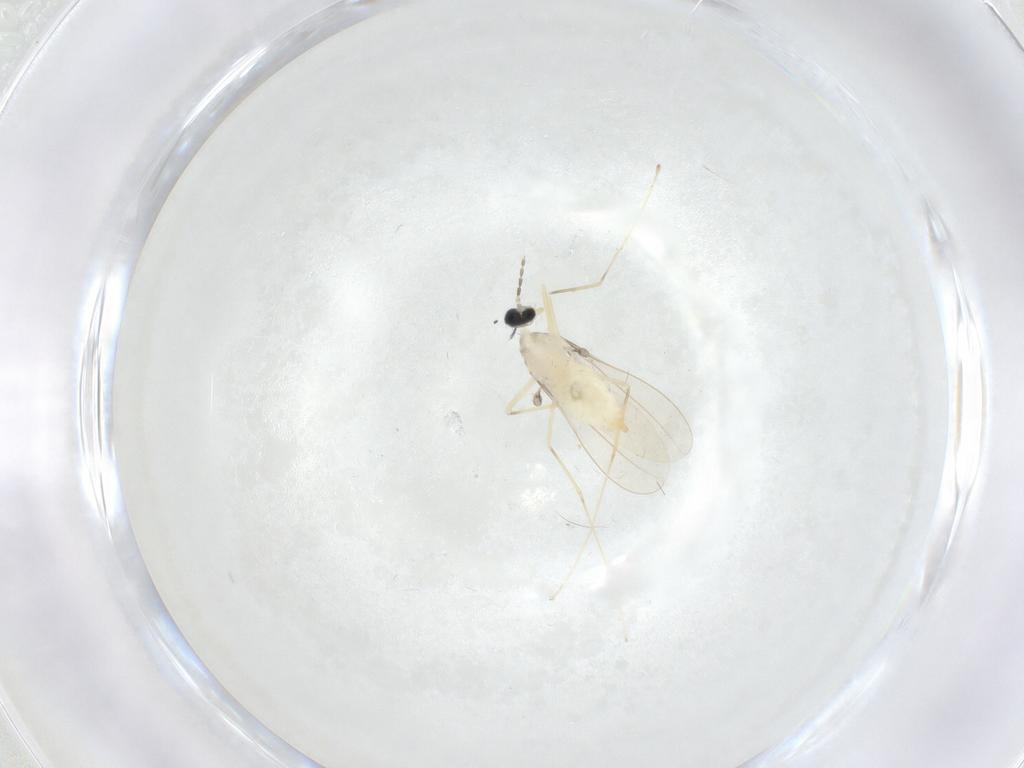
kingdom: Animalia
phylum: Arthropoda
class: Insecta
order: Diptera
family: Cecidomyiidae
